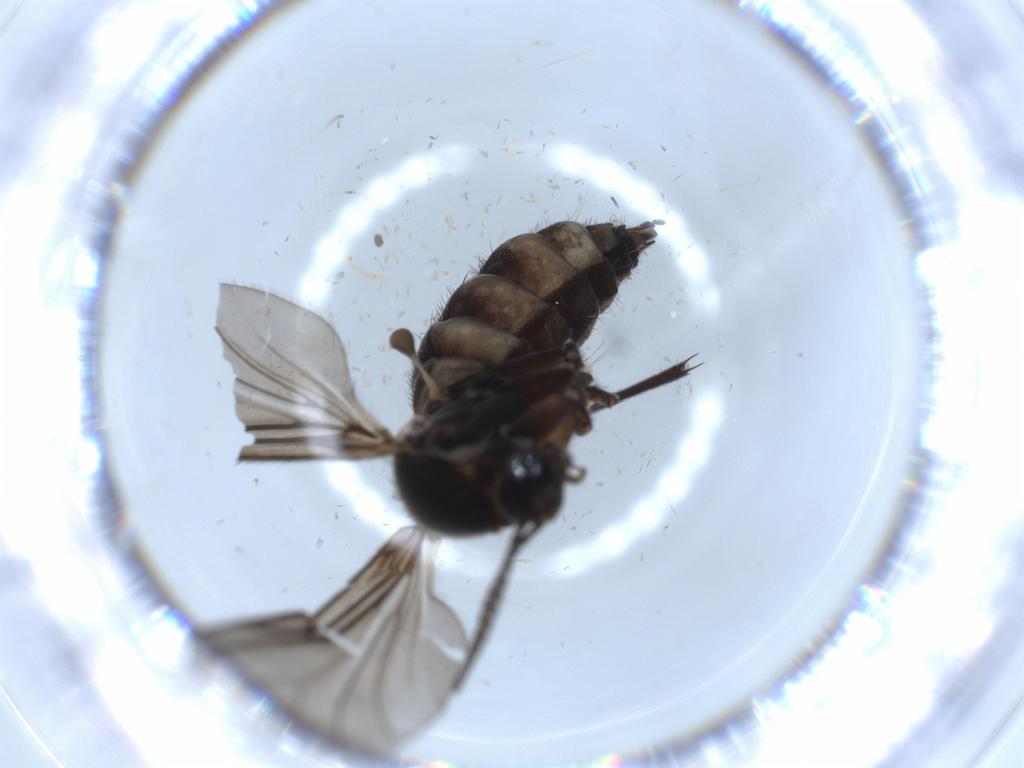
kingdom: Animalia
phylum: Arthropoda
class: Insecta
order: Diptera
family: Sciaridae
